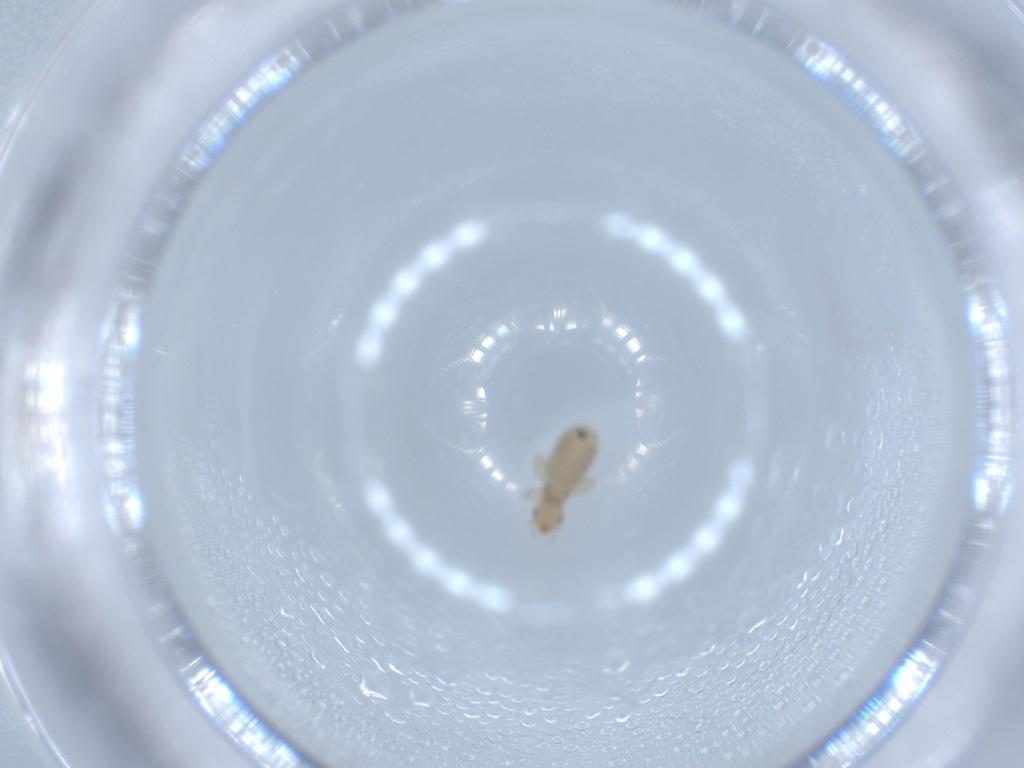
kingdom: Animalia
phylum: Arthropoda
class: Insecta
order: Psocodea
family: Liposcelididae
